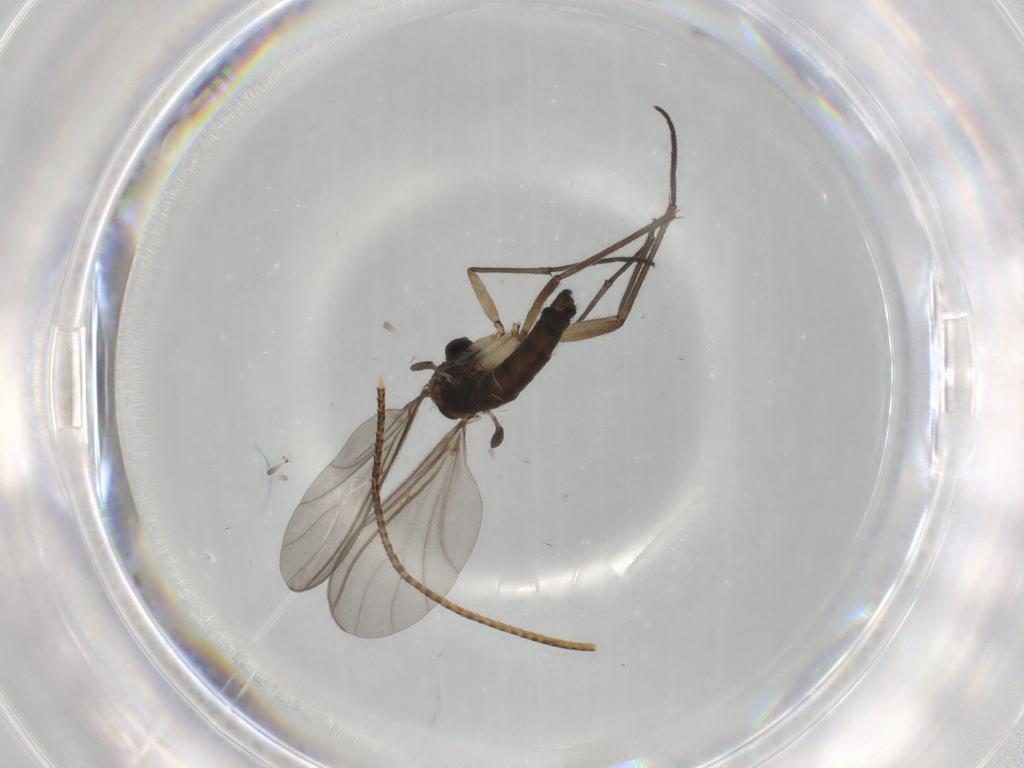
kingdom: Animalia
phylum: Arthropoda
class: Insecta
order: Diptera
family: Sciaridae
